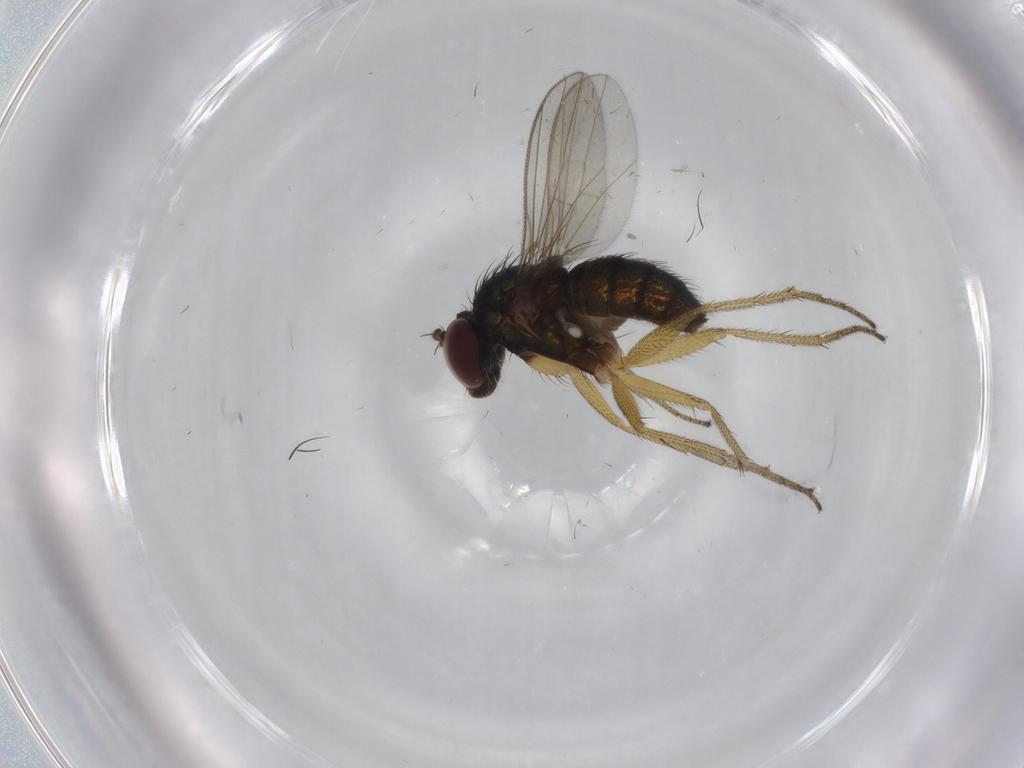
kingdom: Animalia
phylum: Arthropoda
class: Insecta
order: Diptera
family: Dolichopodidae
